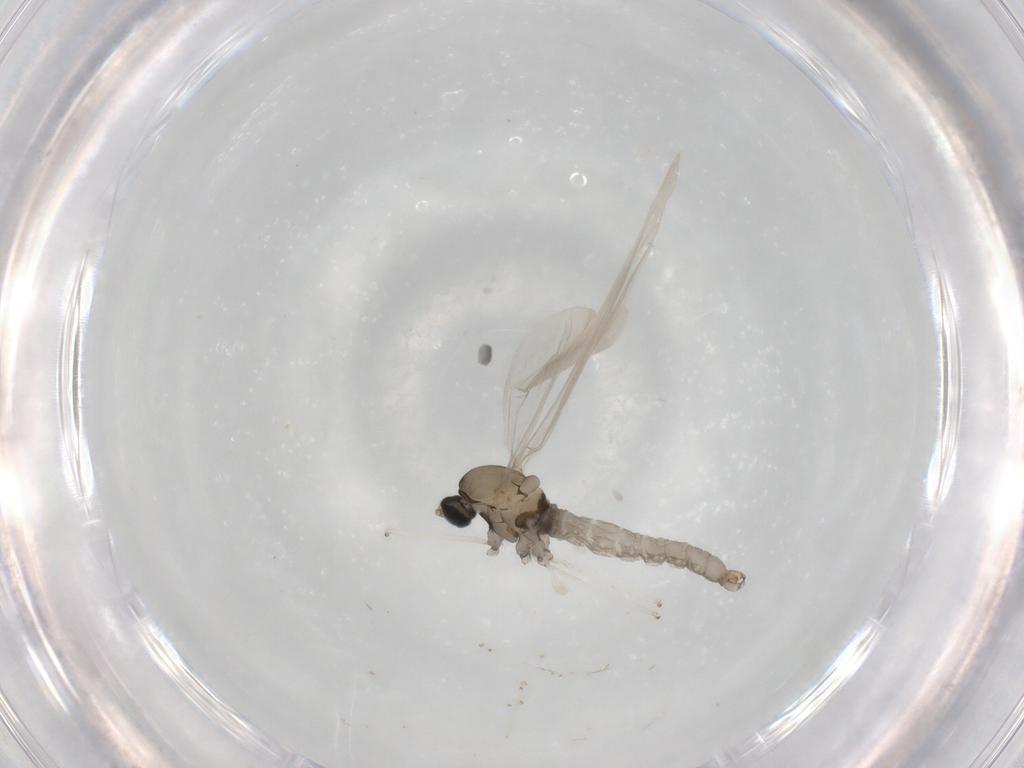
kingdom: Animalia
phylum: Arthropoda
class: Insecta
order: Diptera
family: Cecidomyiidae
